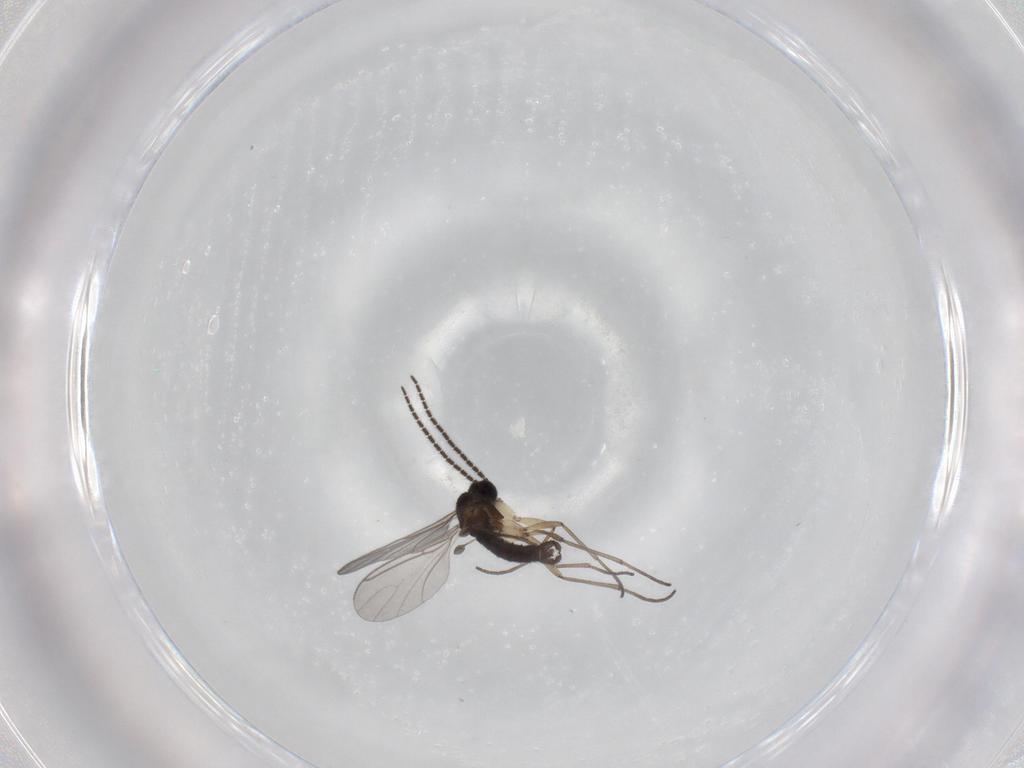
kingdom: Animalia
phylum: Arthropoda
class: Insecta
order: Diptera
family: Sciaridae
